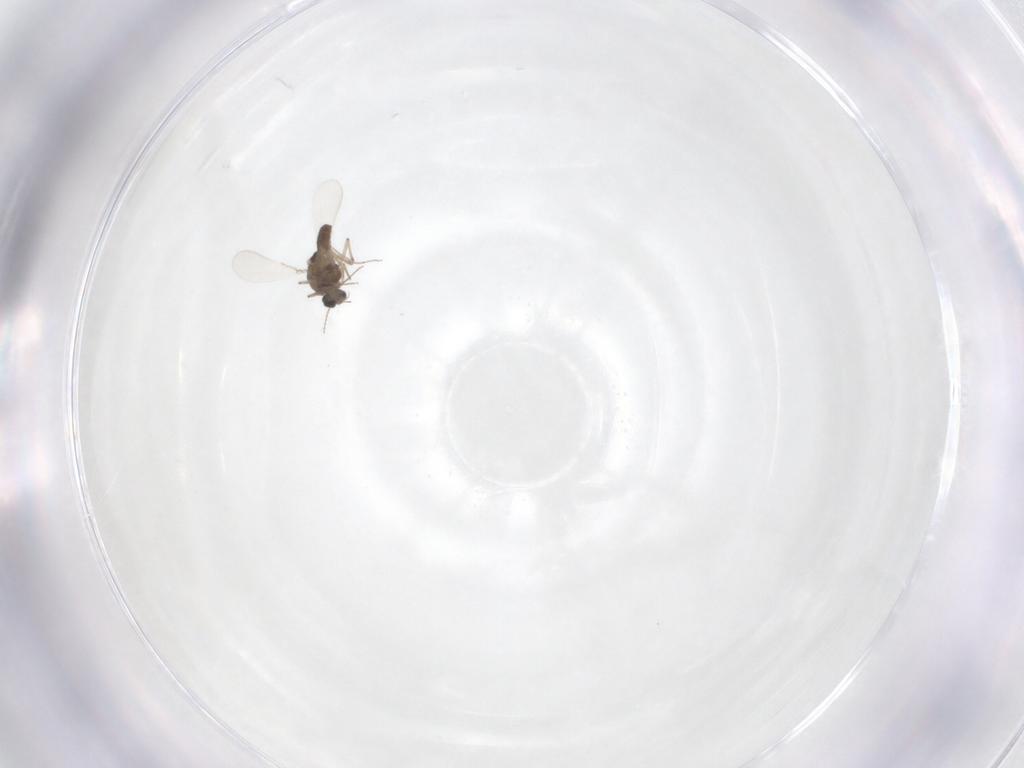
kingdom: Animalia
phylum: Arthropoda
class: Insecta
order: Diptera
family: Chironomidae
